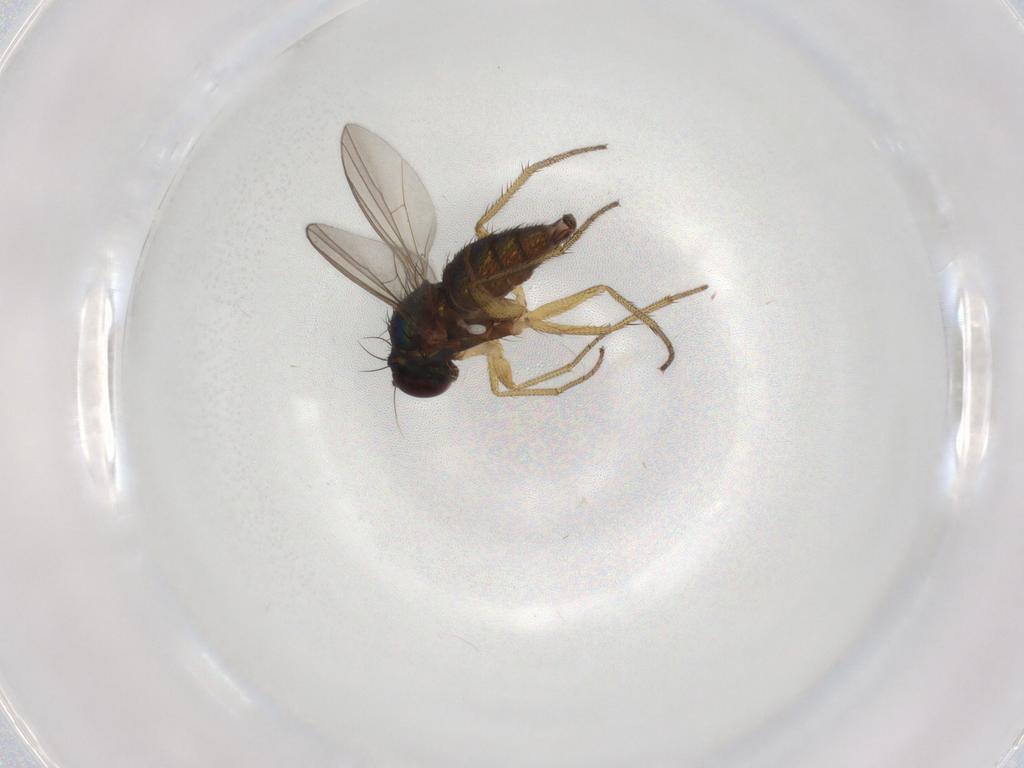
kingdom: Animalia
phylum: Arthropoda
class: Insecta
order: Diptera
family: Dolichopodidae
